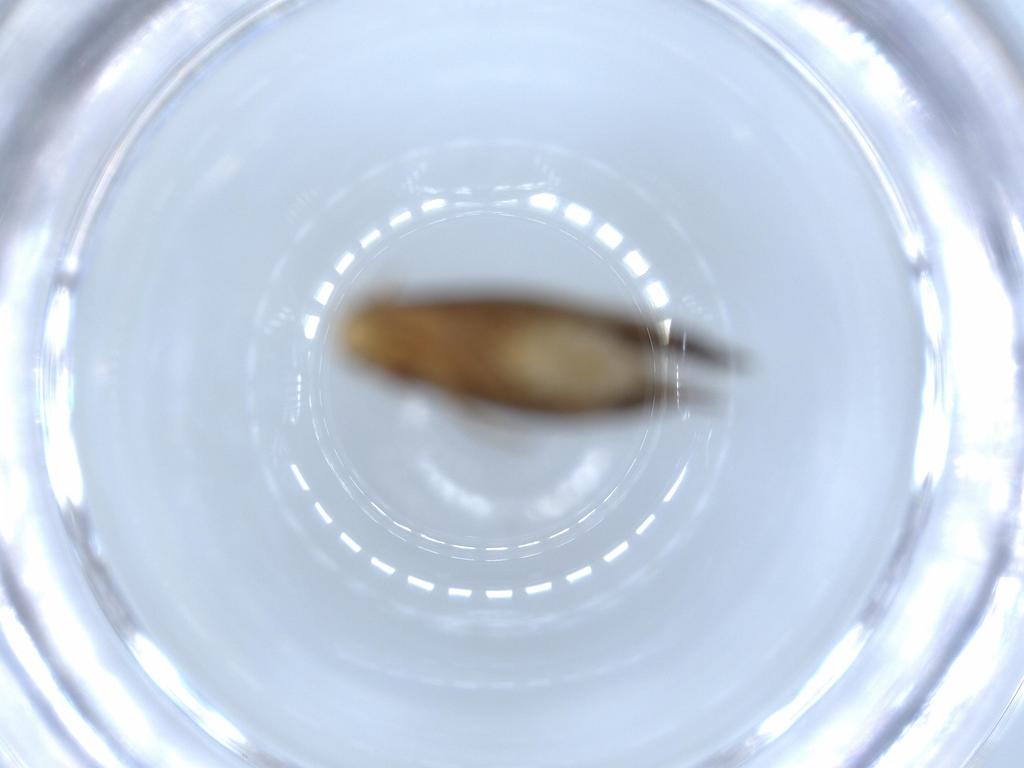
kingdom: Animalia
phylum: Arthropoda
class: Insecta
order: Lepidoptera
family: Tineidae
